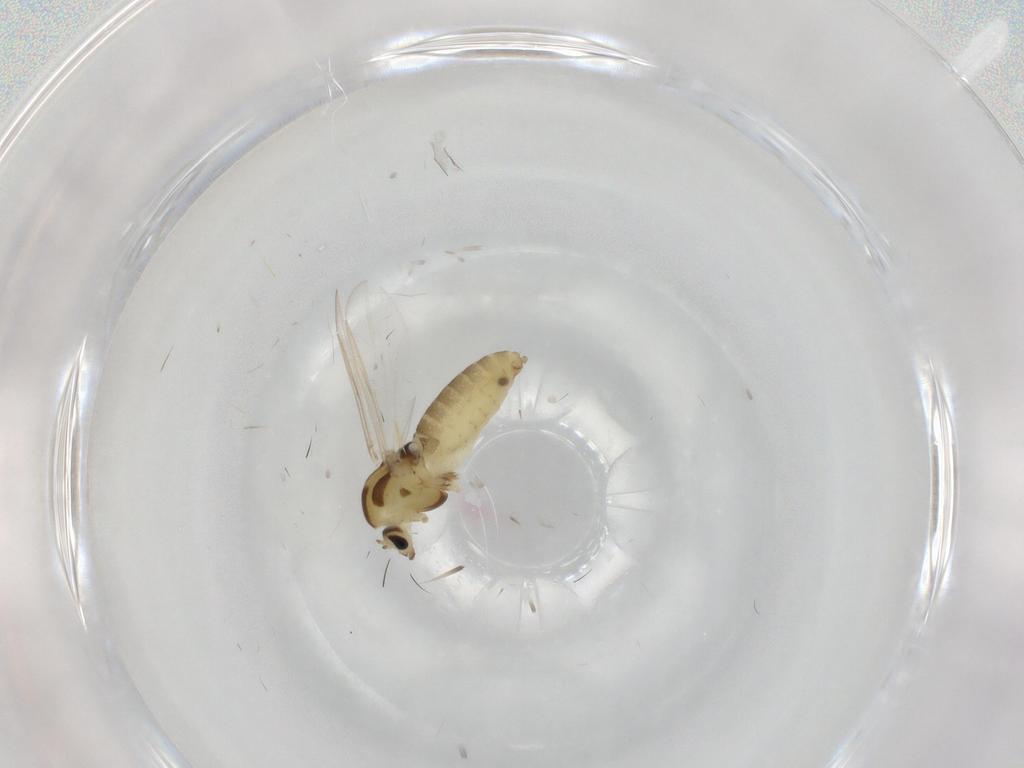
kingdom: Animalia
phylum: Arthropoda
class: Insecta
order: Diptera
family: Chironomidae
